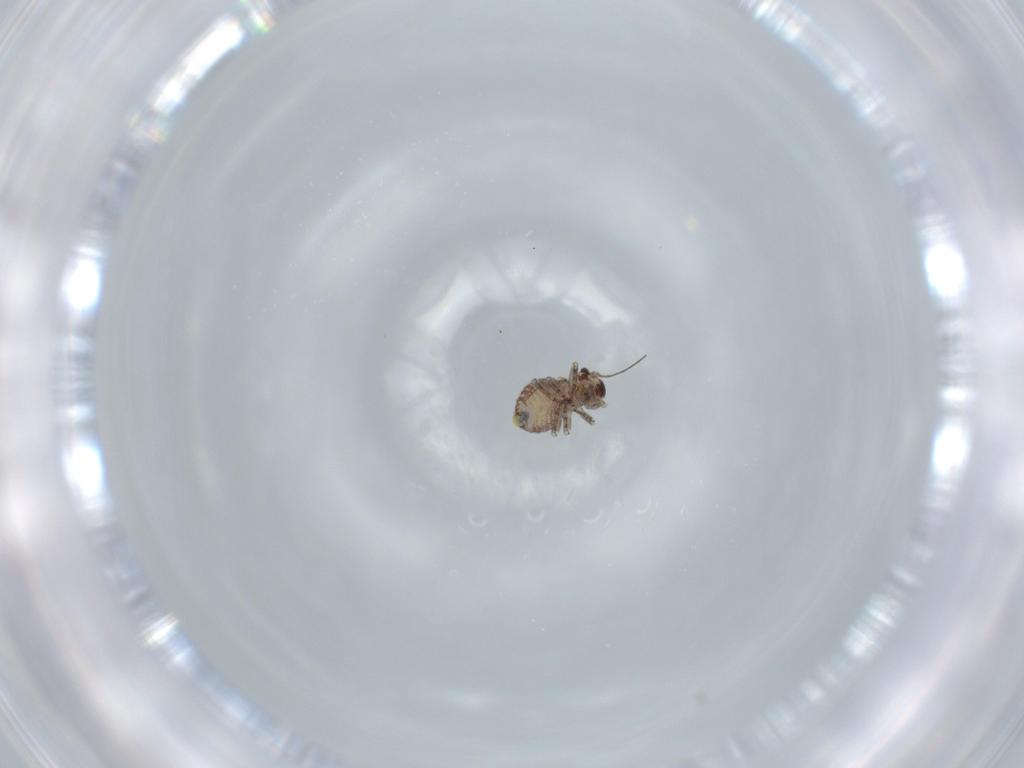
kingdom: Animalia
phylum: Arthropoda
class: Insecta
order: Psocodea
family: Psocidae
